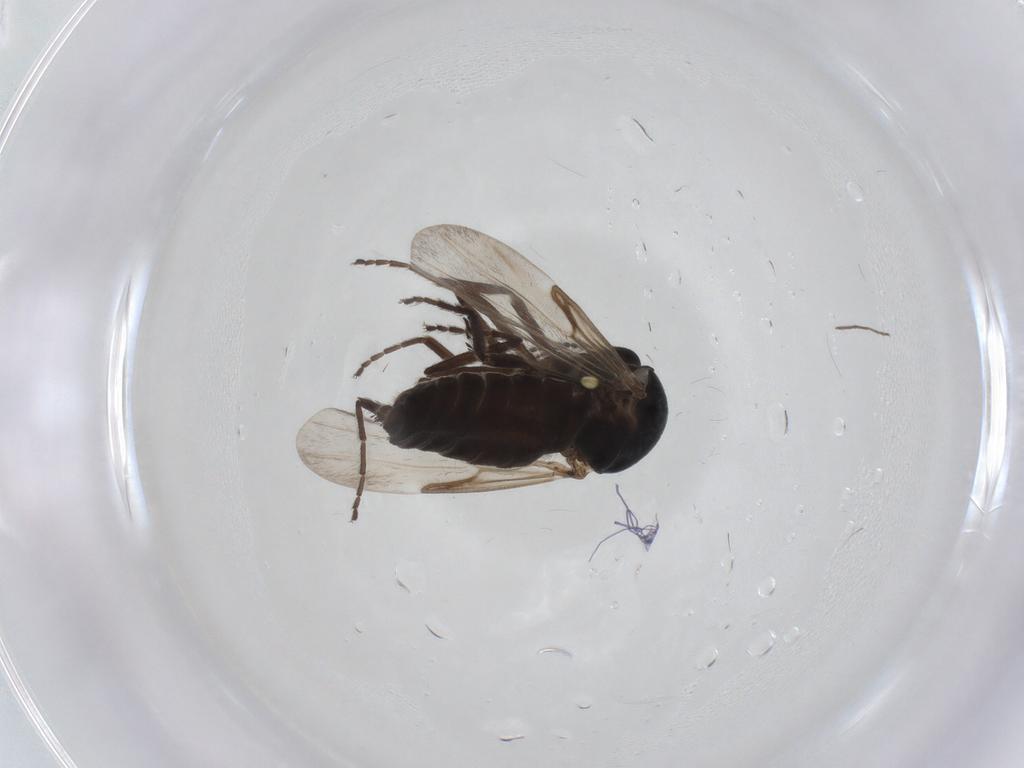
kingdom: Animalia
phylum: Arthropoda
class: Insecta
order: Diptera
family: Ceratopogonidae
